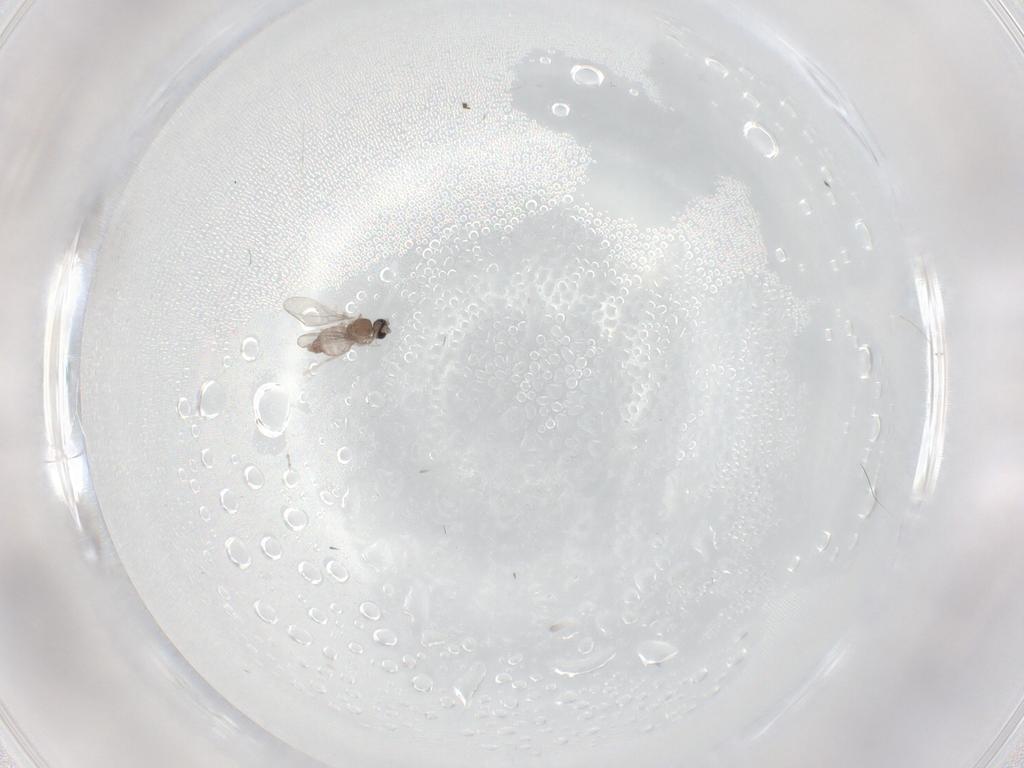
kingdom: Animalia
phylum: Arthropoda
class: Insecta
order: Diptera
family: Cecidomyiidae
